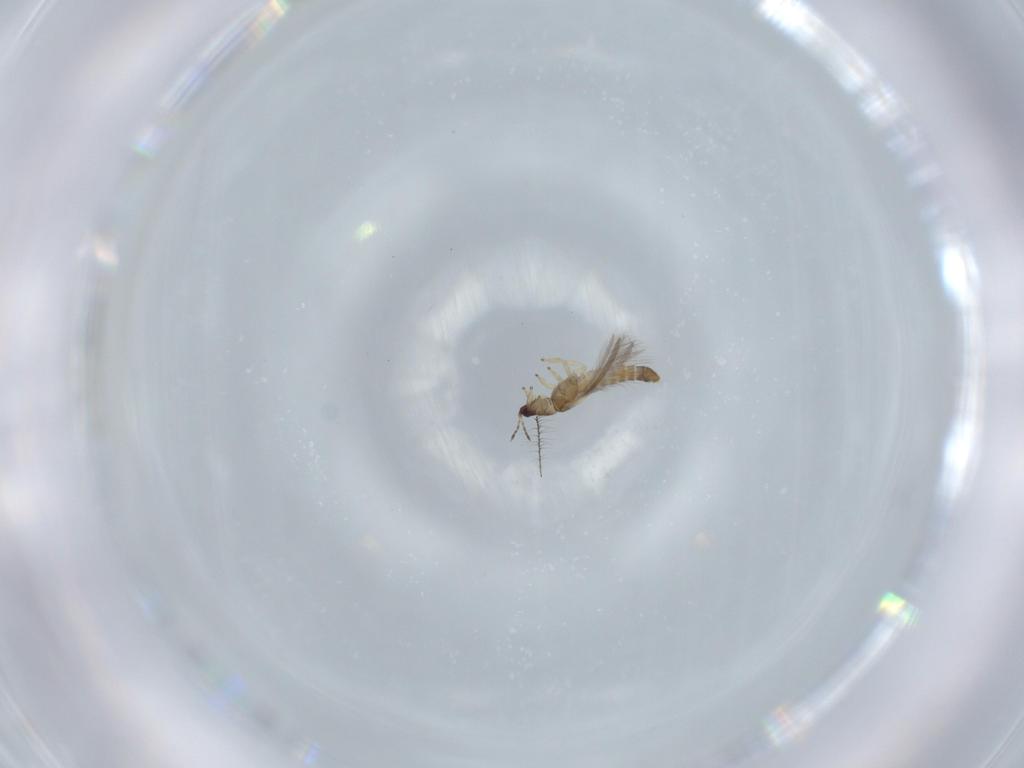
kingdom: Animalia
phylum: Arthropoda
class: Insecta
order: Thysanoptera
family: Thripidae
